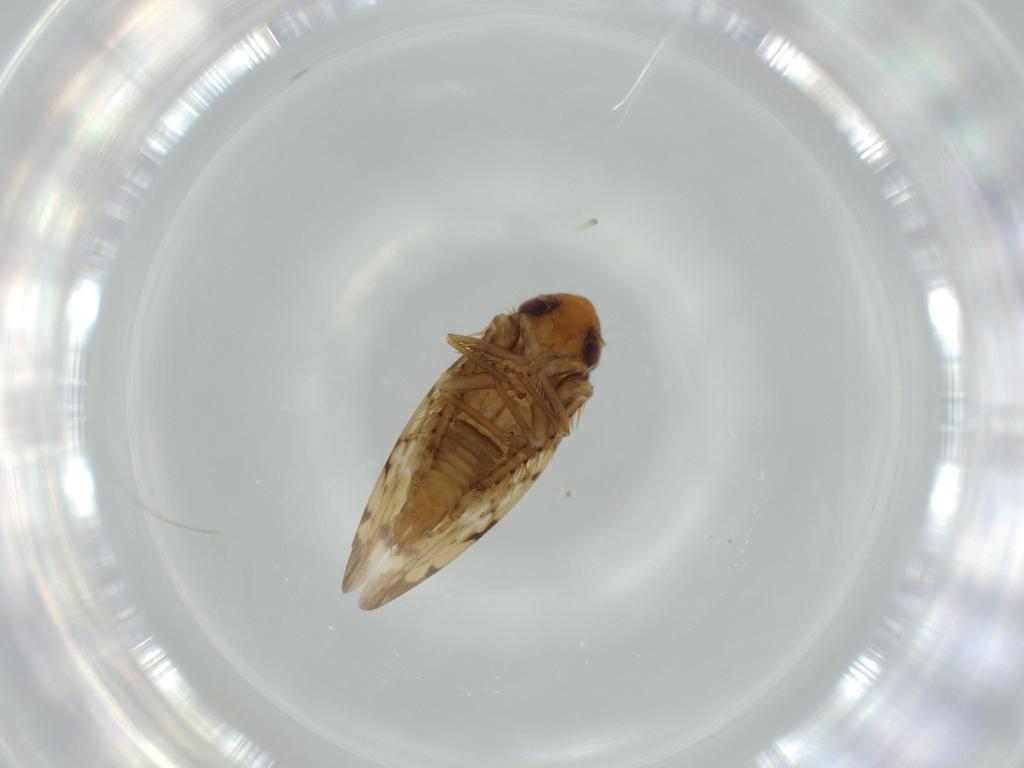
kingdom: Animalia
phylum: Arthropoda
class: Insecta
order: Hemiptera
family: Cicadellidae
